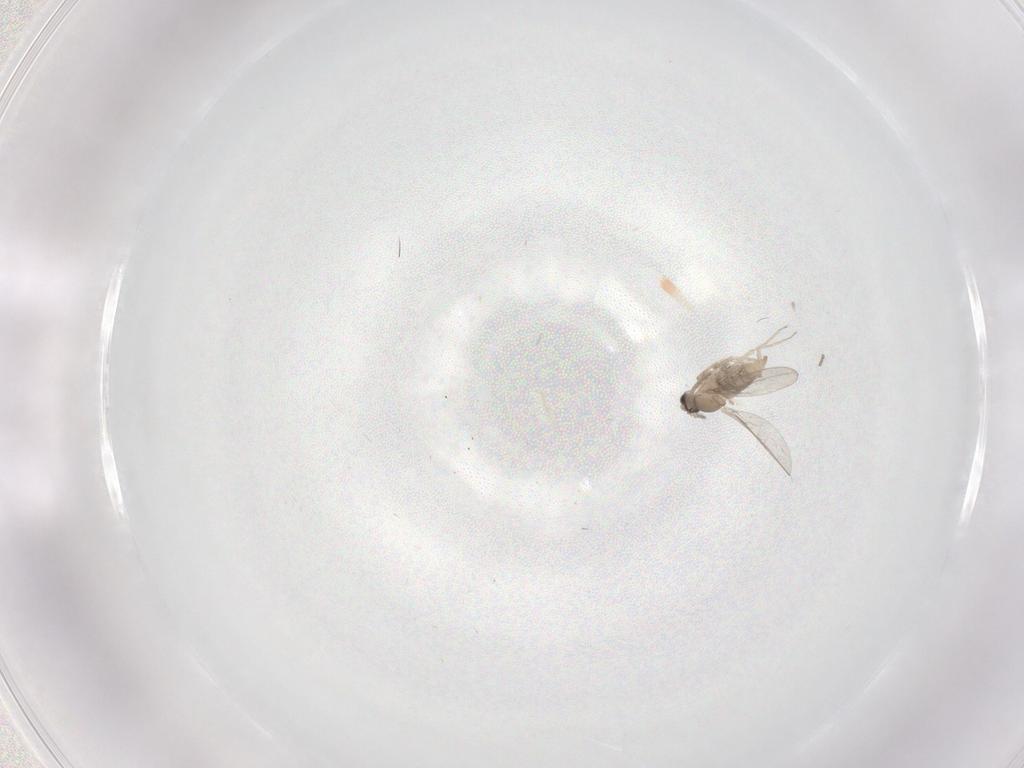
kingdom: Animalia
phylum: Arthropoda
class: Insecta
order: Diptera
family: Cecidomyiidae
